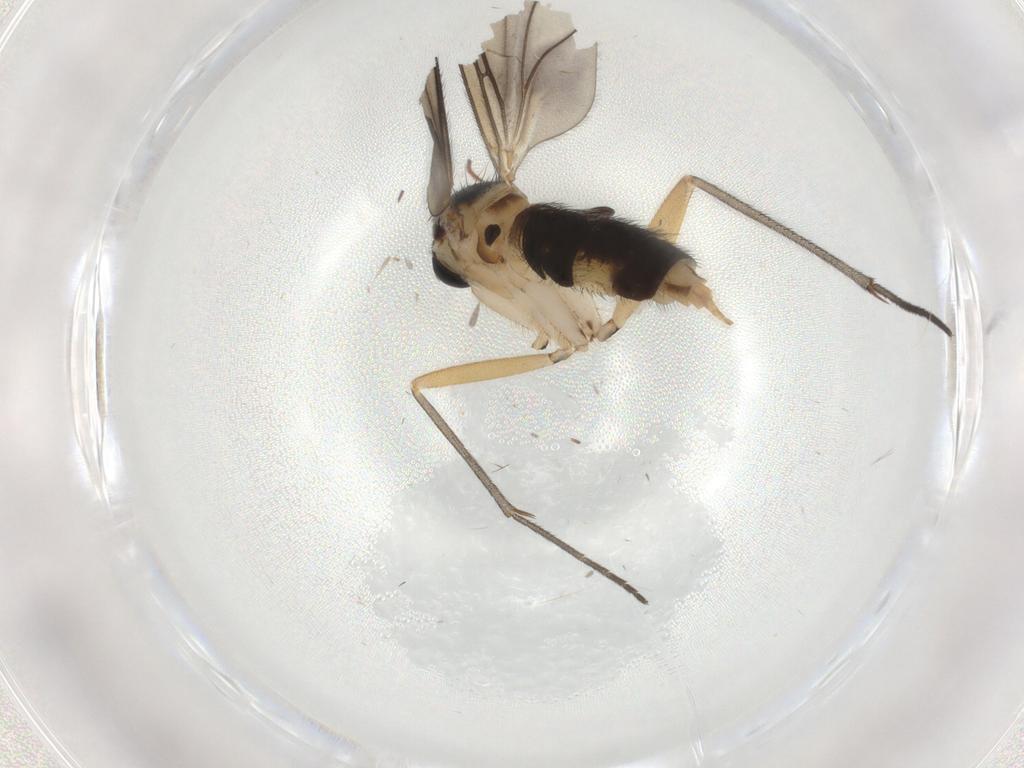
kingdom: Animalia
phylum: Arthropoda
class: Insecta
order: Diptera
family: Sciaridae
